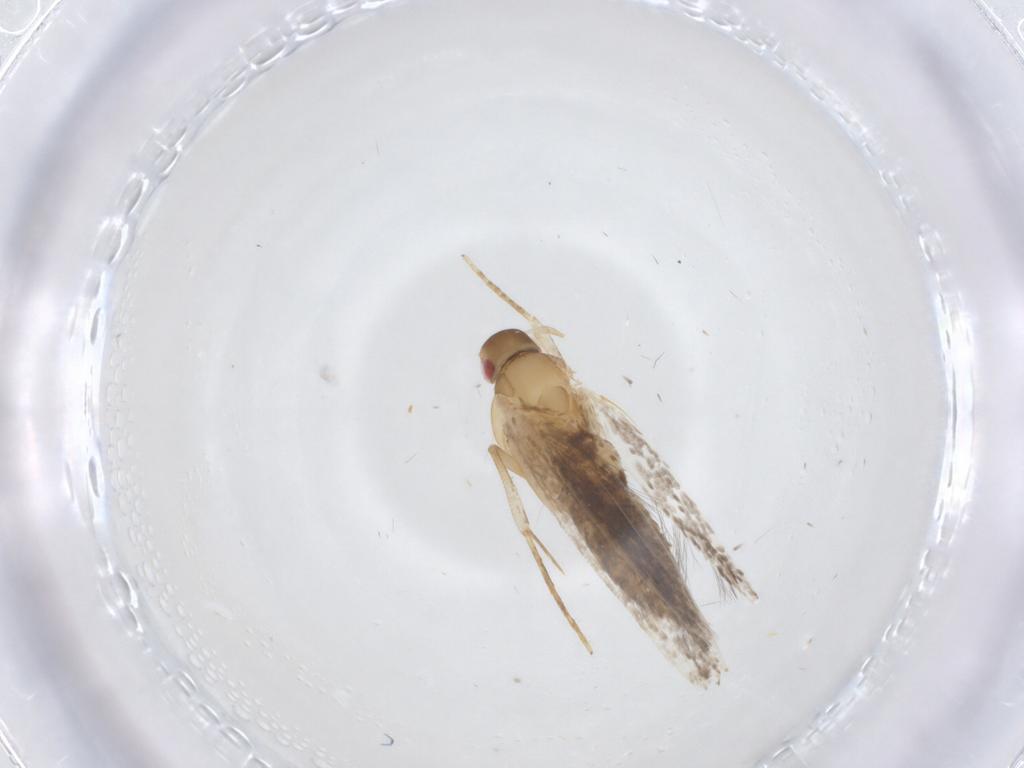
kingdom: Animalia
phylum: Arthropoda
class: Insecta
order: Lepidoptera
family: Cosmopterigidae
